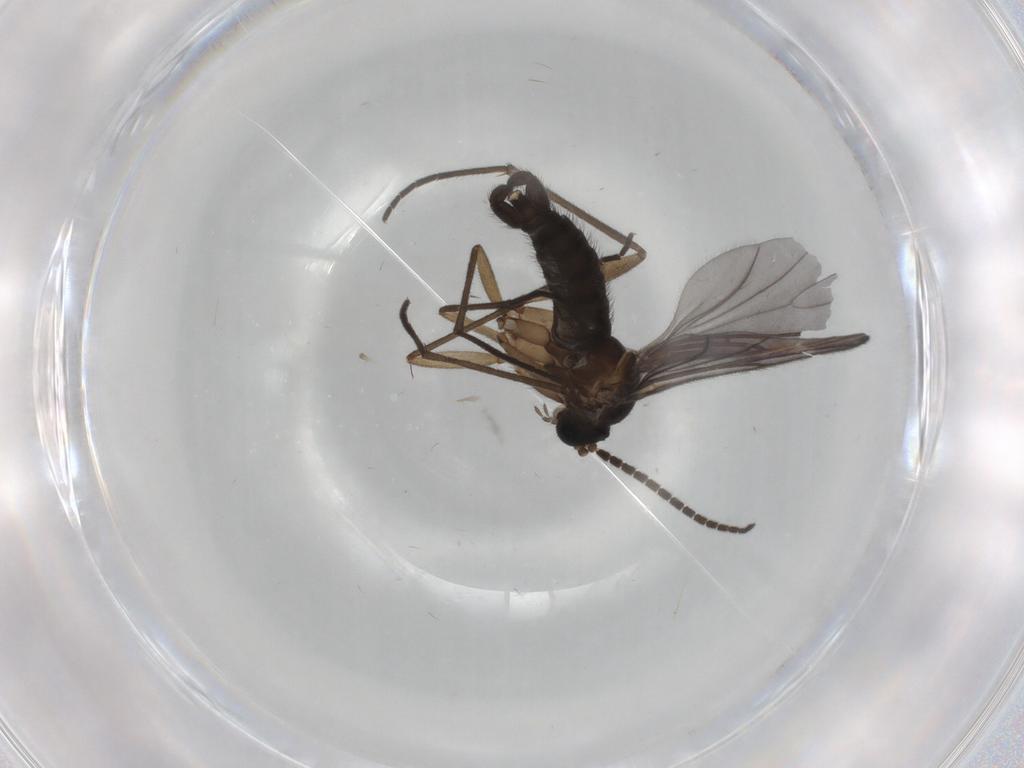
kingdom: Animalia
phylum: Arthropoda
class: Insecta
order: Diptera
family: Sciaridae
